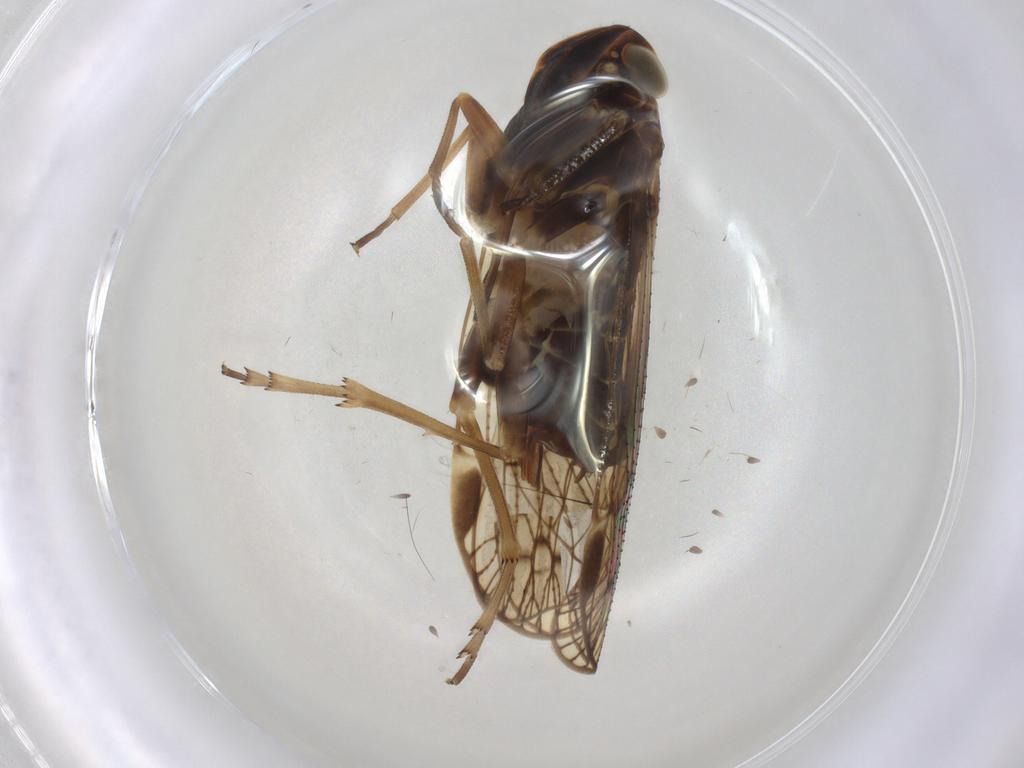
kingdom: Animalia
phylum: Arthropoda
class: Insecta
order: Hemiptera
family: Cixiidae
